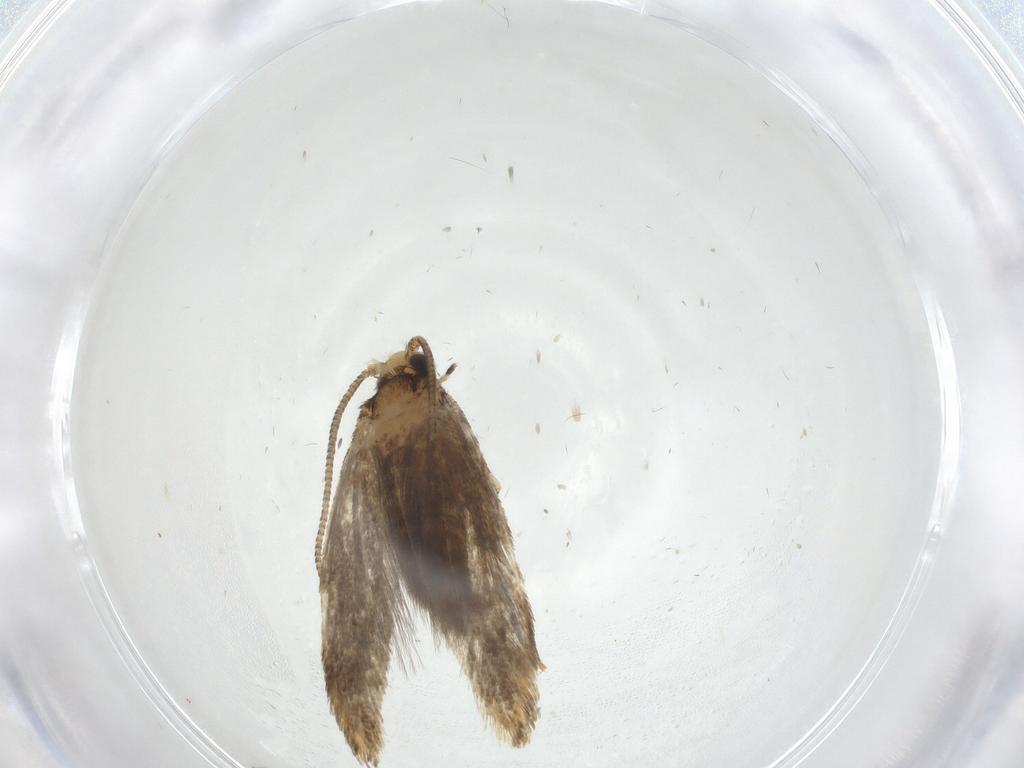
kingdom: Animalia
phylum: Arthropoda
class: Insecta
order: Lepidoptera
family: Tineidae
